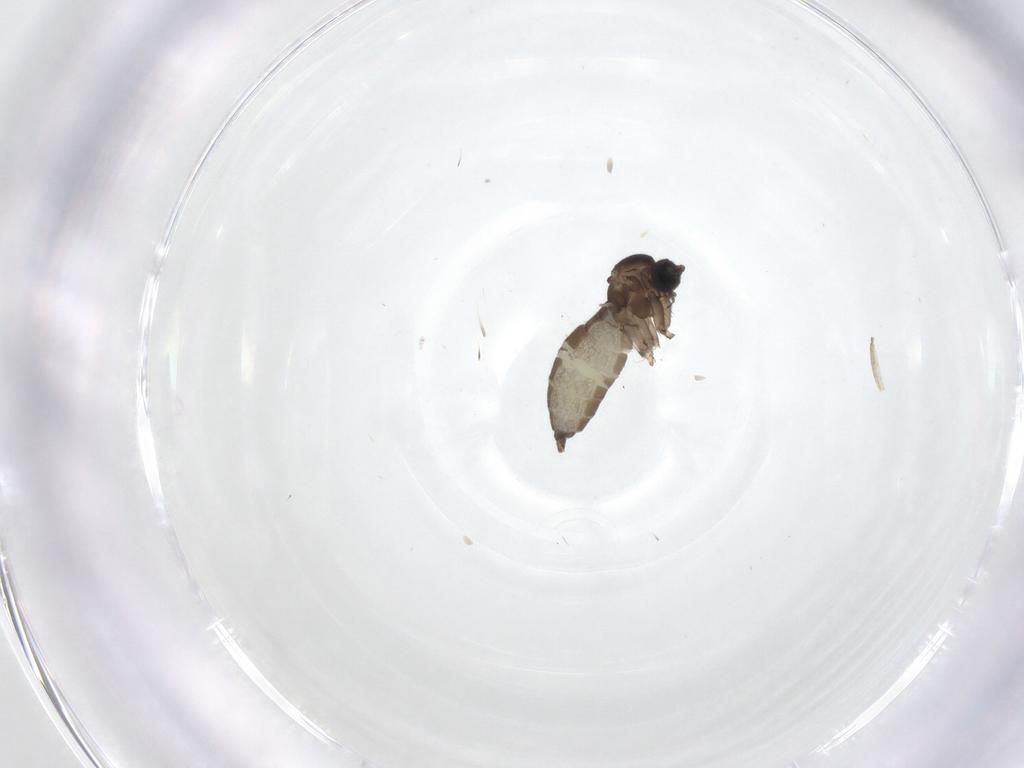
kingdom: Animalia
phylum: Arthropoda
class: Insecta
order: Diptera
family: Sciaridae
